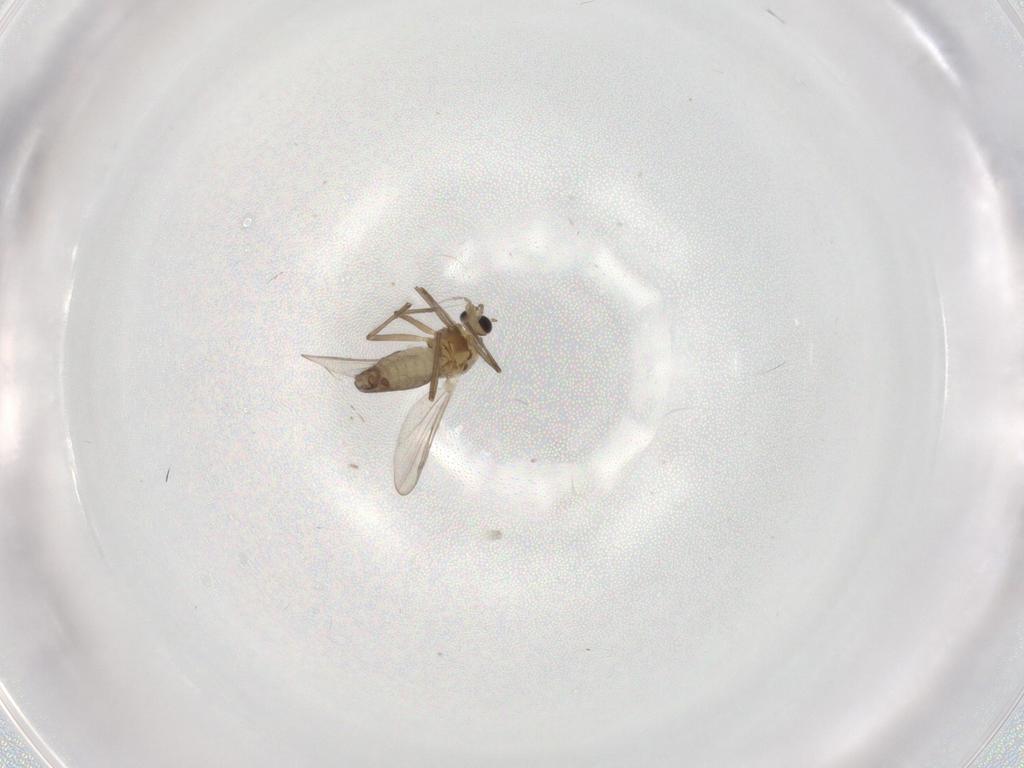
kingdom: Animalia
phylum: Arthropoda
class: Insecta
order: Diptera
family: Chironomidae
